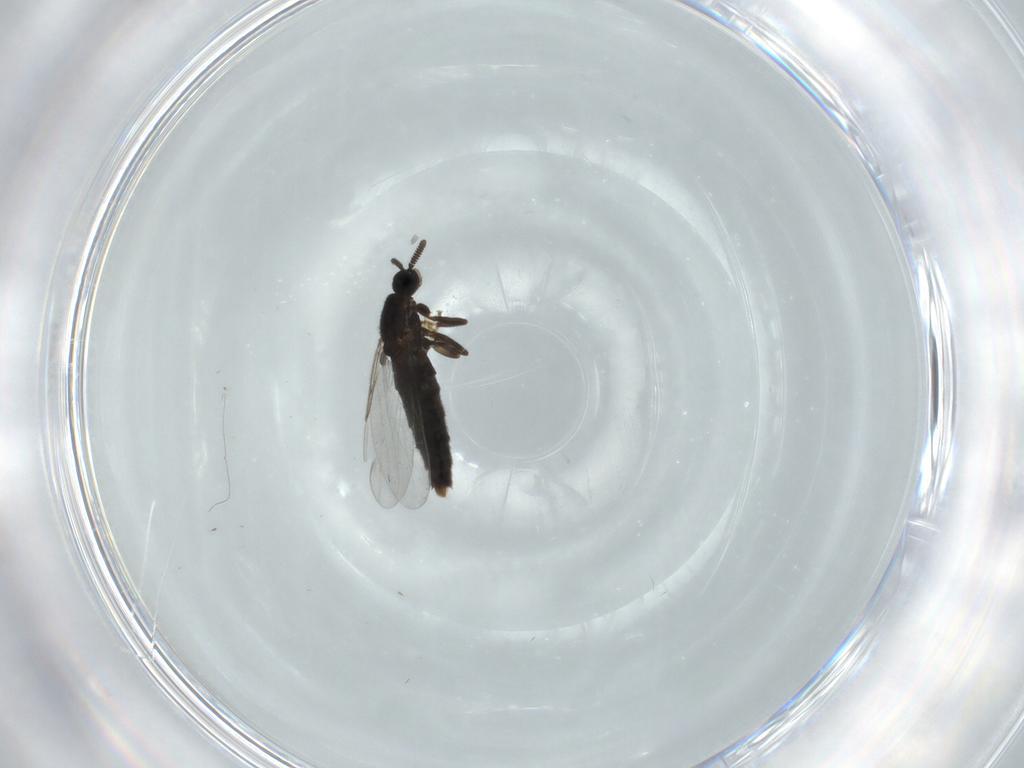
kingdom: Animalia
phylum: Arthropoda
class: Insecta
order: Diptera
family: Scatopsidae
